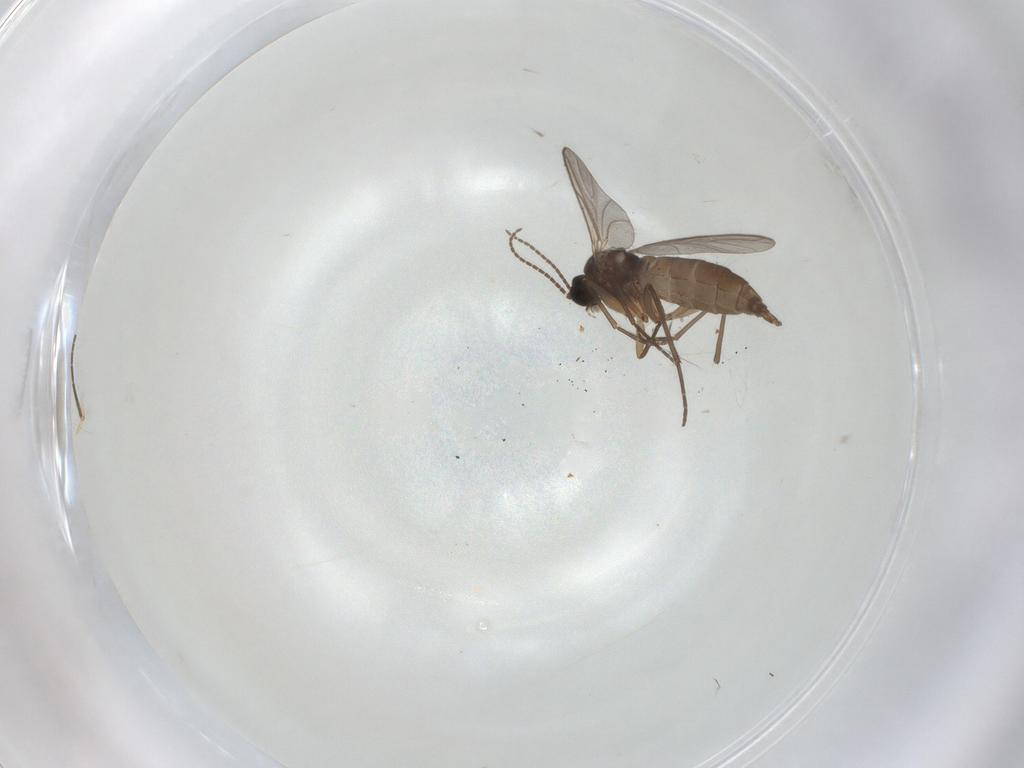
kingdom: Animalia
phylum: Arthropoda
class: Insecta
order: Diptera
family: Sciaridae
